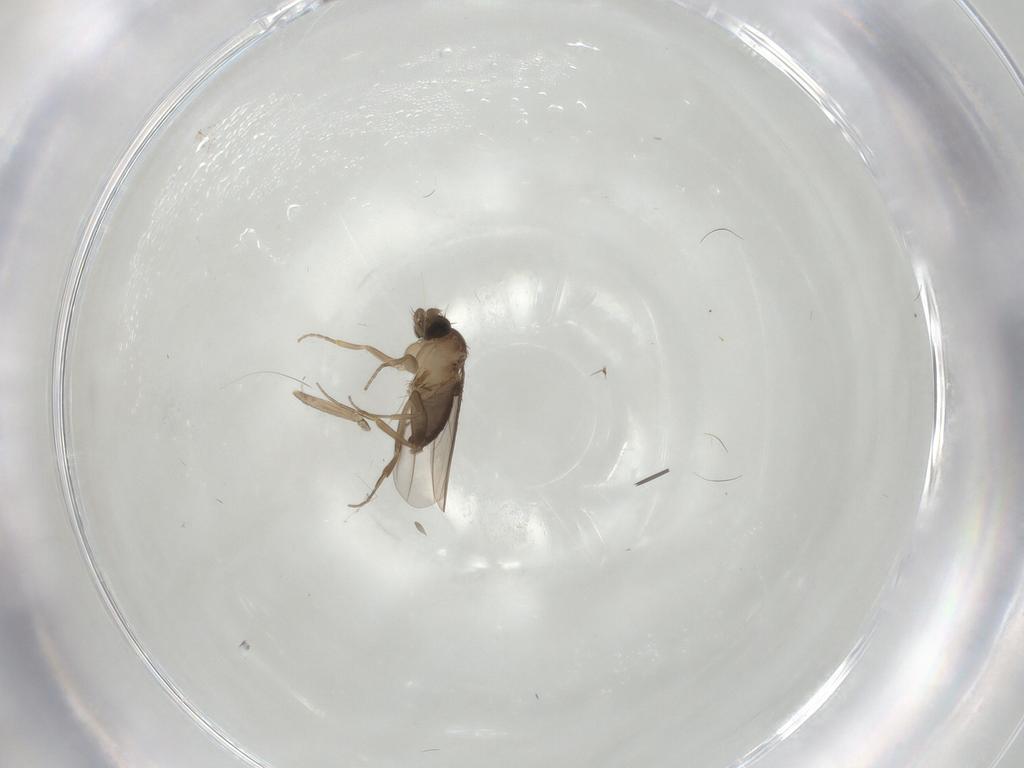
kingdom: Animalia
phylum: Arthropoda
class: Insecta
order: Diptera
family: Phoridae
